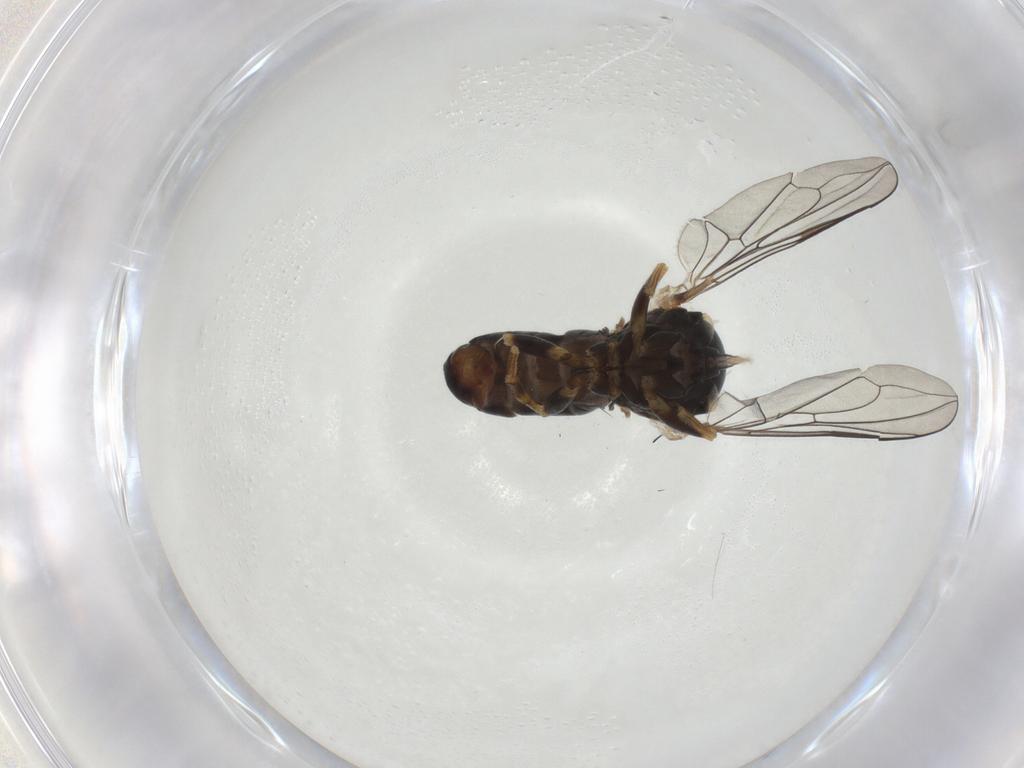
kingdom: Animalia
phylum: Arthropoda
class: Insecta
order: Diptera
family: Pipunculidae
